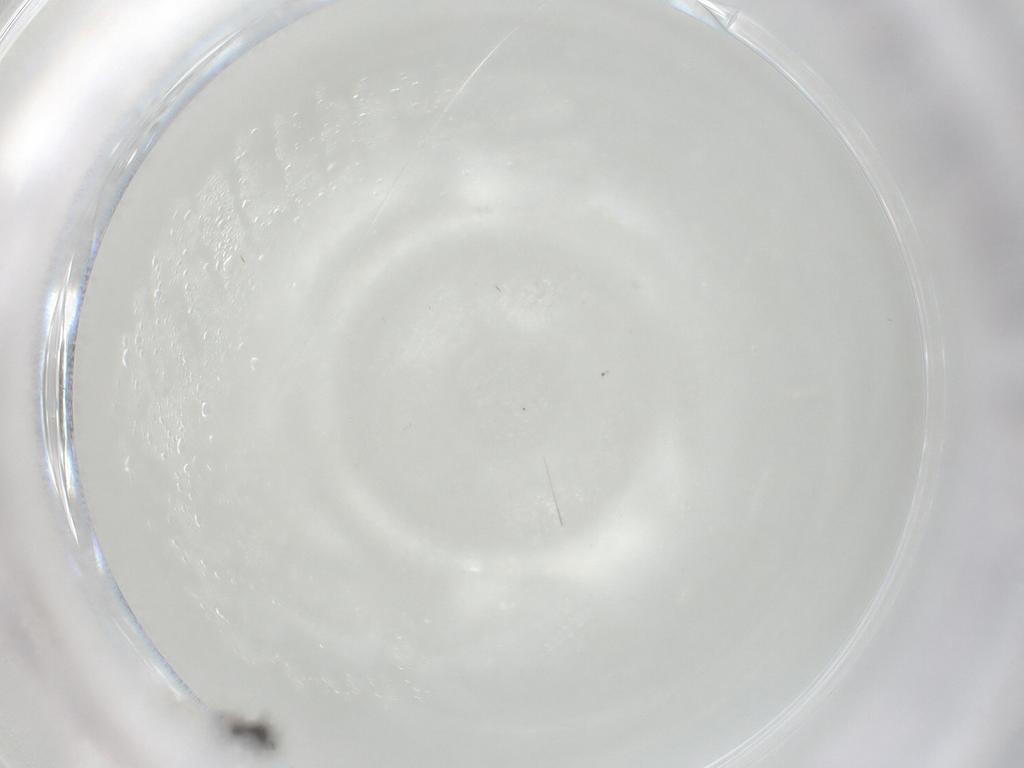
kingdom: Animalia
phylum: Arthropoda
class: Insecta
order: Hymenoptera
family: Scelionidae
